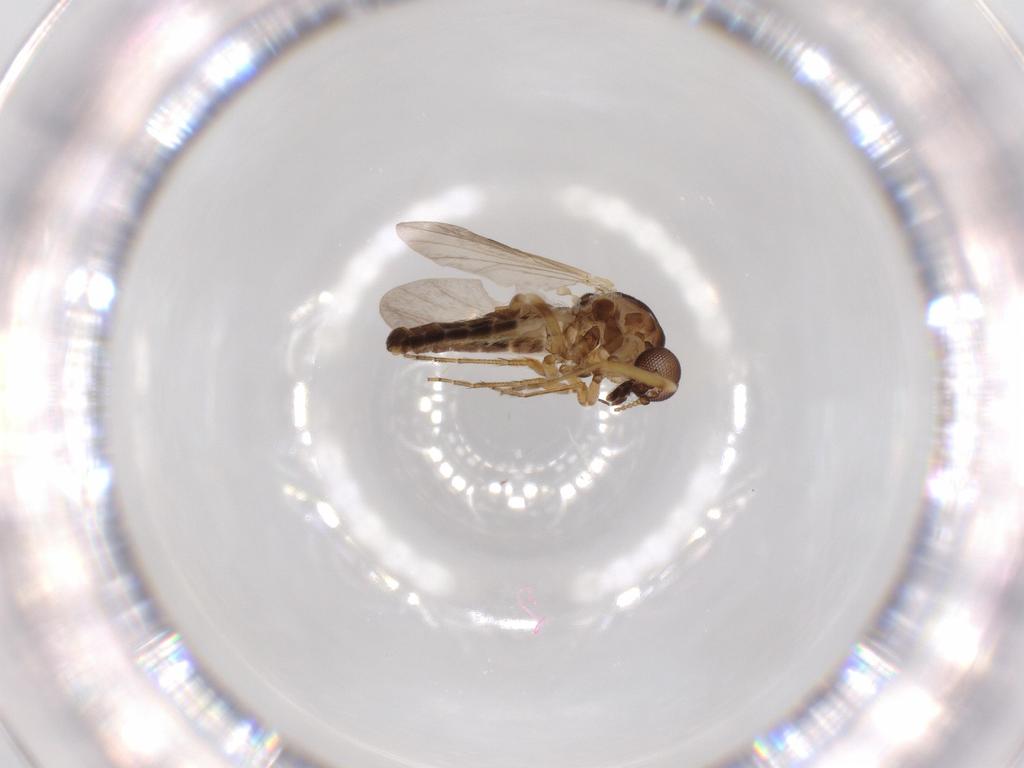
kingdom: Animalia
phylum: Arthropoda
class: Insecta
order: Diptera
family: Ceratopogonidae
